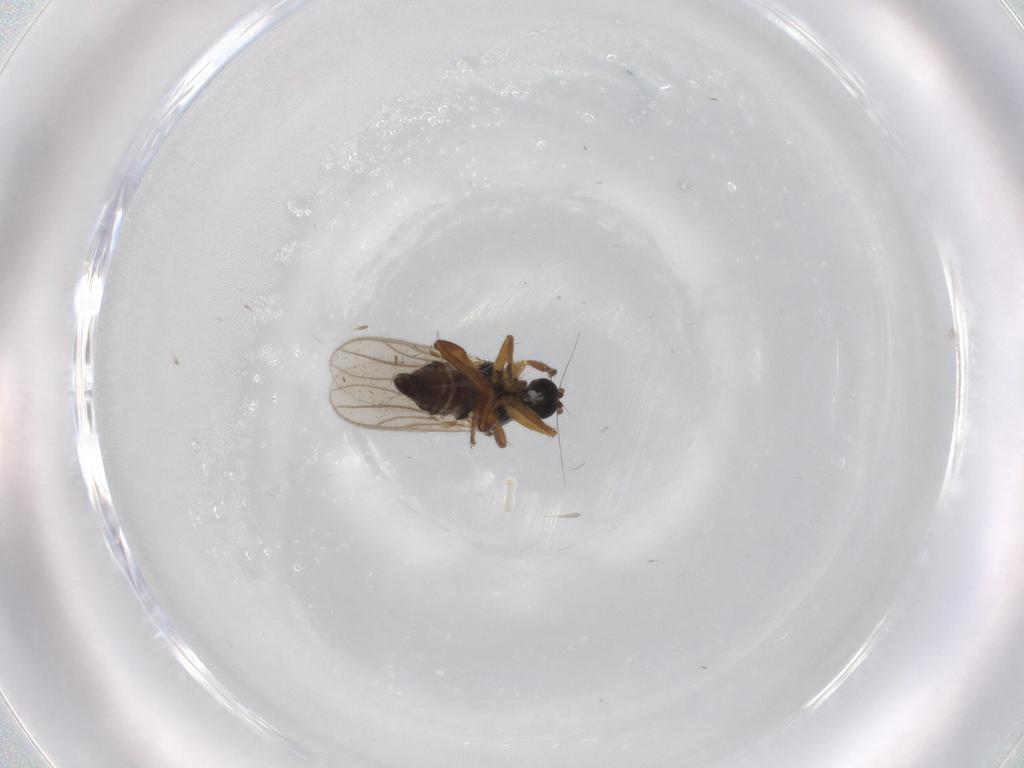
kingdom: Animalia
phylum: Arthropoda
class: Insecta
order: Diptera
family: Hybotidae
